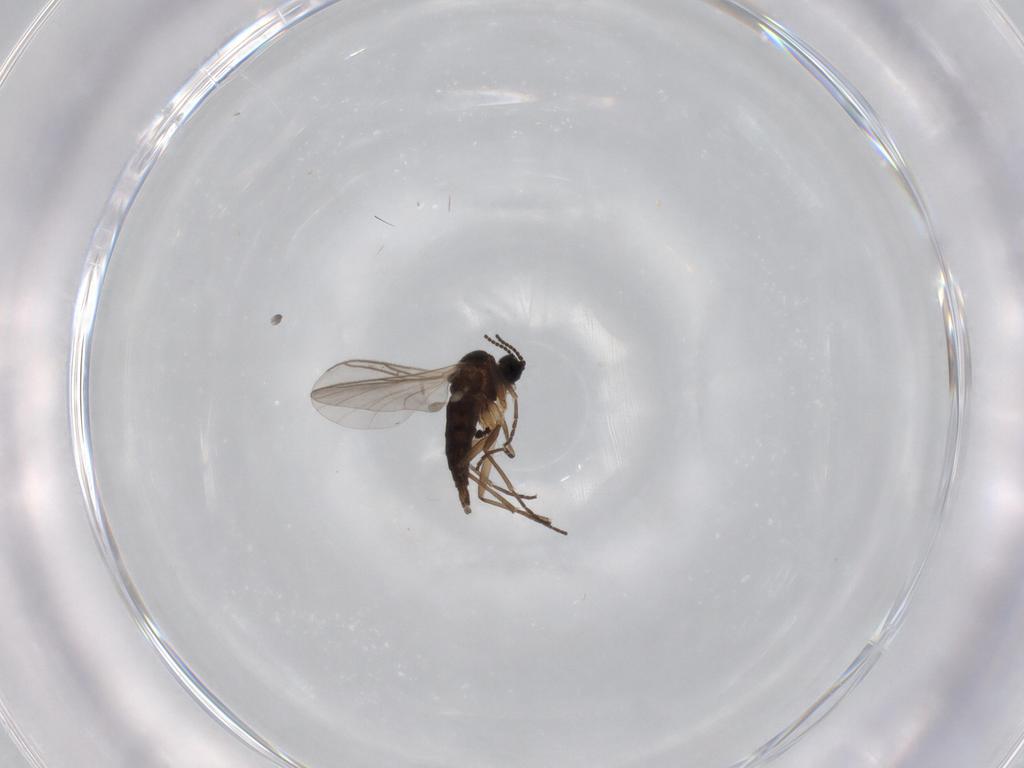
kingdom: Animalia
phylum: Arthropoda
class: Insecta
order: Diptera
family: Sciaridae
